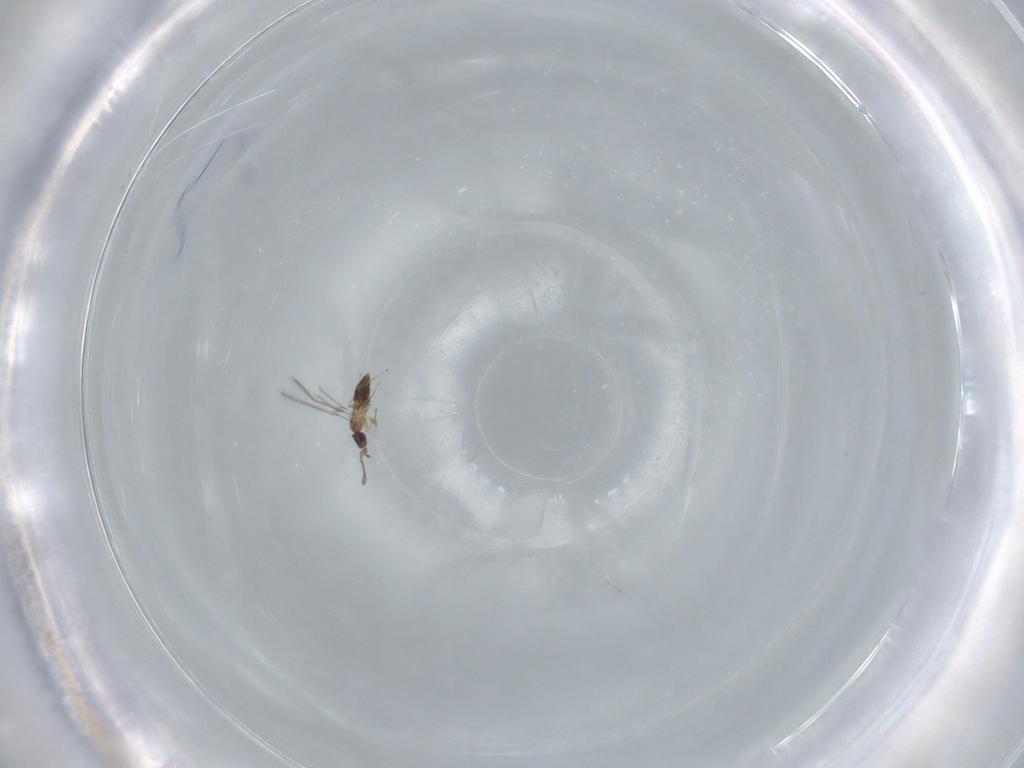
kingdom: Animalia
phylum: Arthropoda
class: Insecta
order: Hymenoptera
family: Mymaridae
